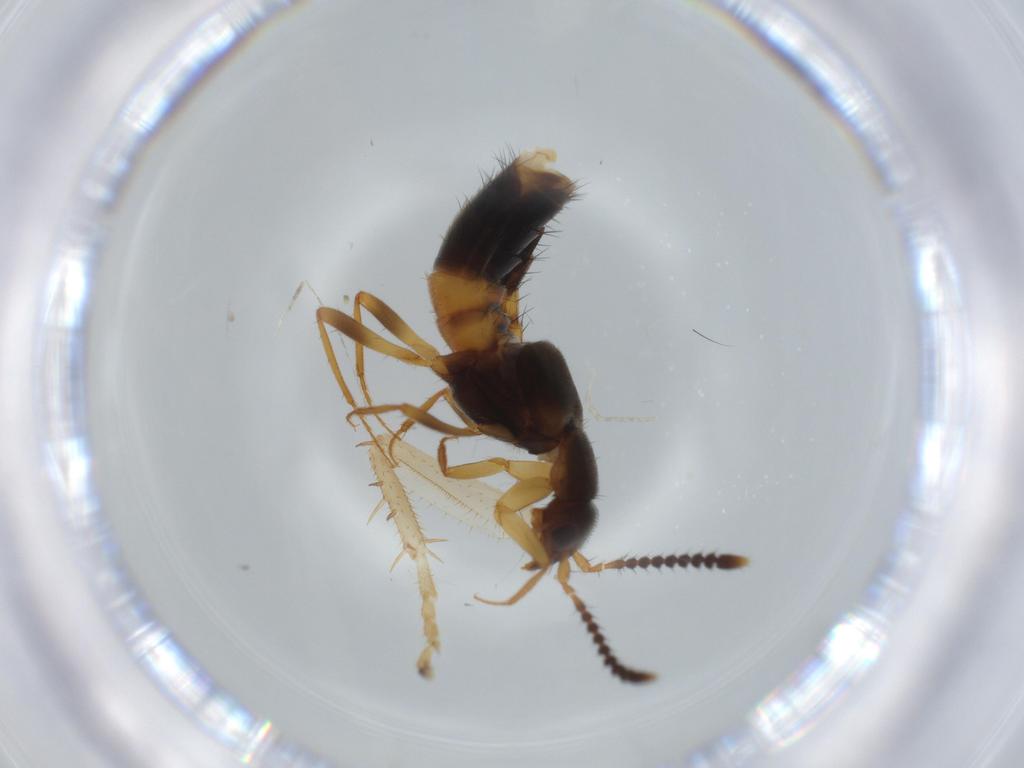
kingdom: Animalia
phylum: Arthropoda
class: Insecta
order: Coleoptera
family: Staphylinidae
